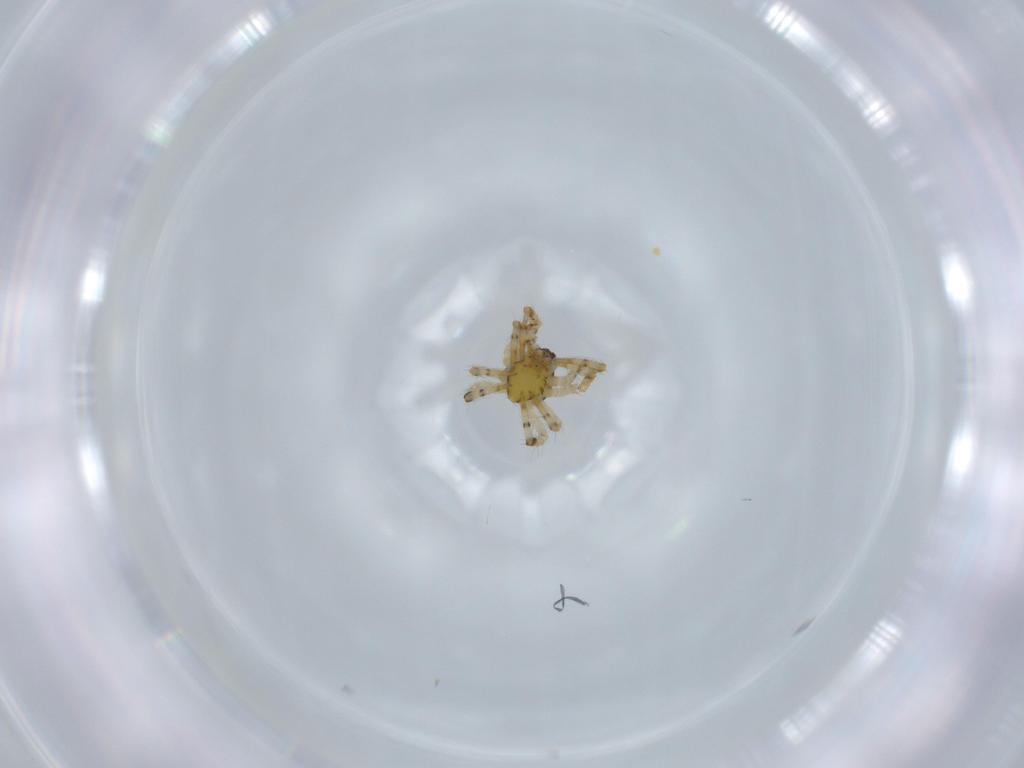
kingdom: Animalia
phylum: Arthropoda
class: Arachnida
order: Araneae
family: Theridiidae
